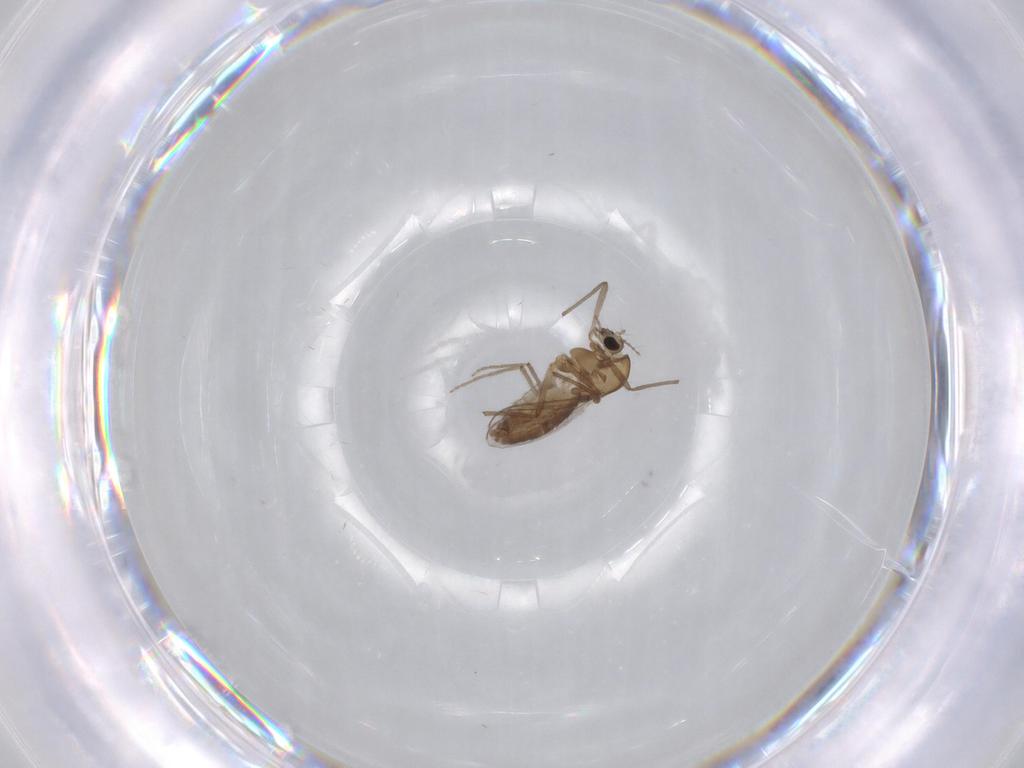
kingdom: Animalia
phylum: Arthropoda
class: Insecta
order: Diptera
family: Chironomidae
